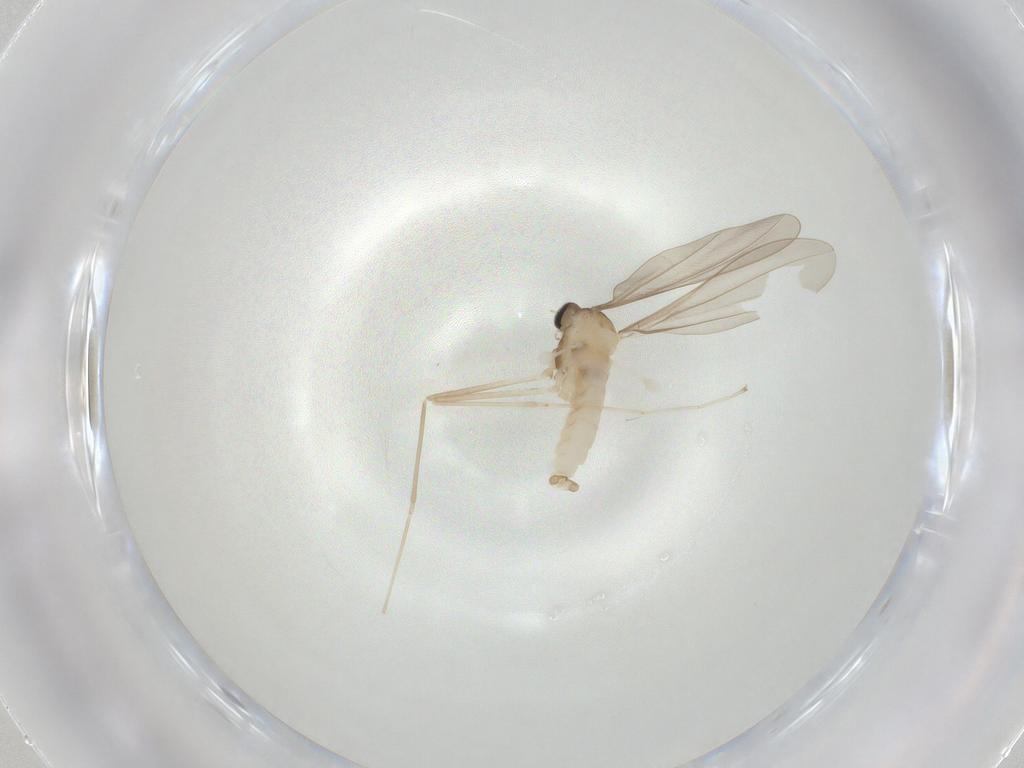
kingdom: Animalia
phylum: Arthropoda
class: Insecta
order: Diptera
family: Cecidomyiidae
